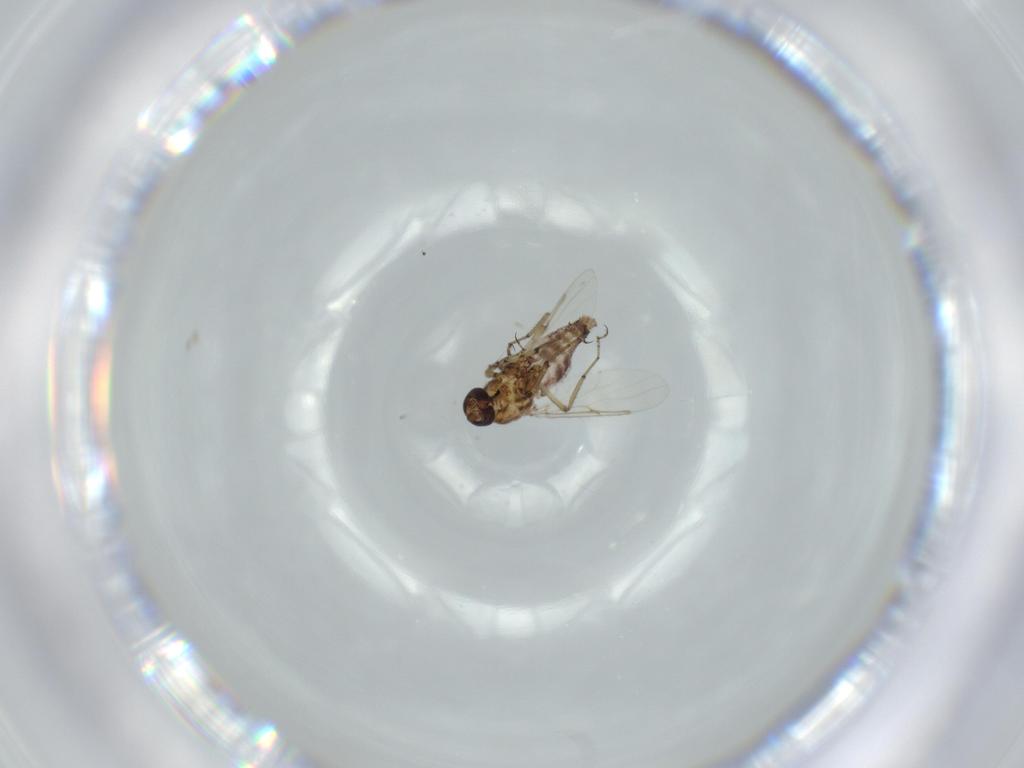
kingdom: Animalia
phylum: Arthropoda
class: Insecta
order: Diptera
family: Ceratopogonidae
